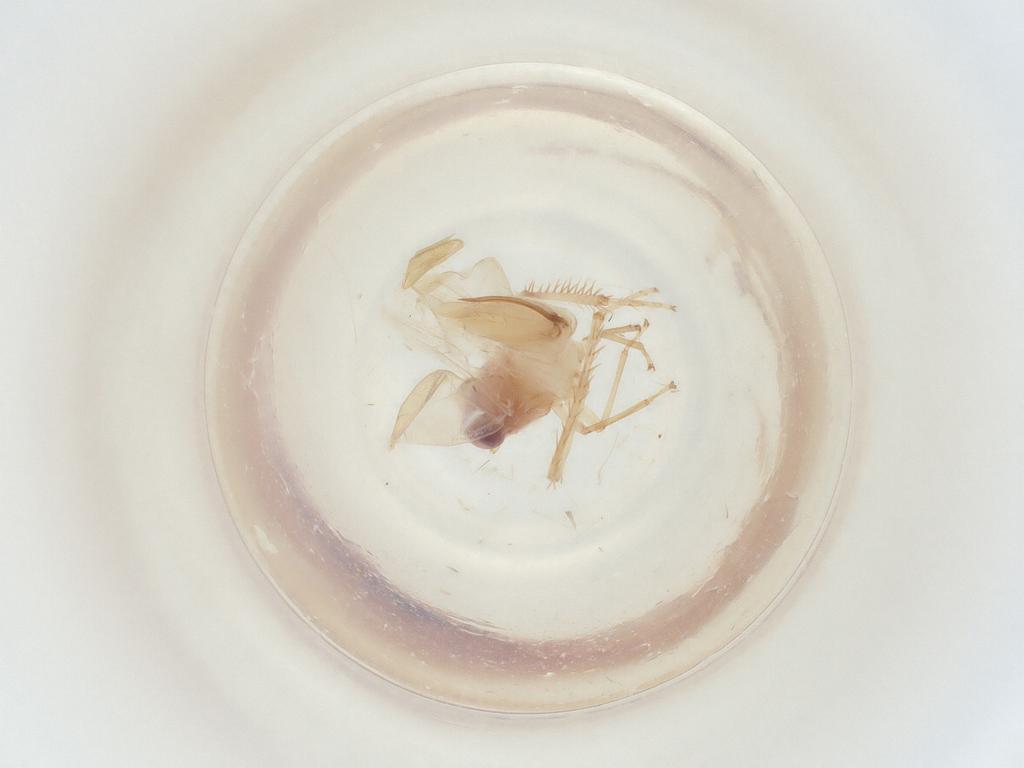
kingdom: Animalia
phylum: Arthropoda
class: Insecta
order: Hemiptera
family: Cicadellidae
